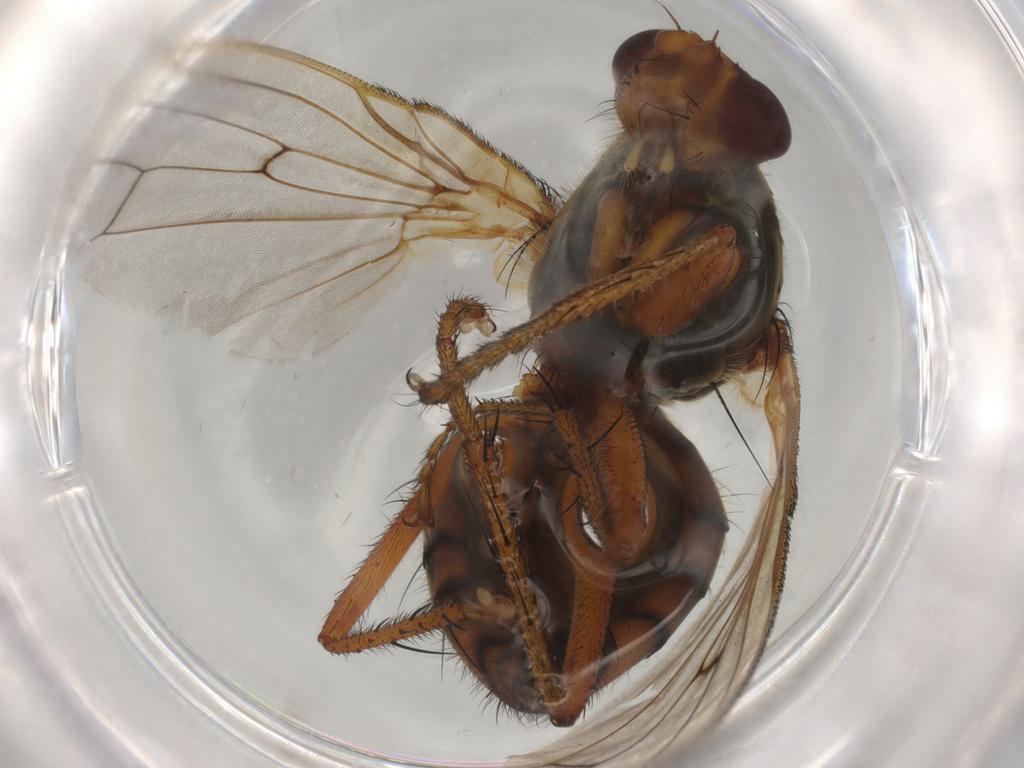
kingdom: Animalia
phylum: Arthropoda
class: Insecta
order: Diptera
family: Scathophagidae
